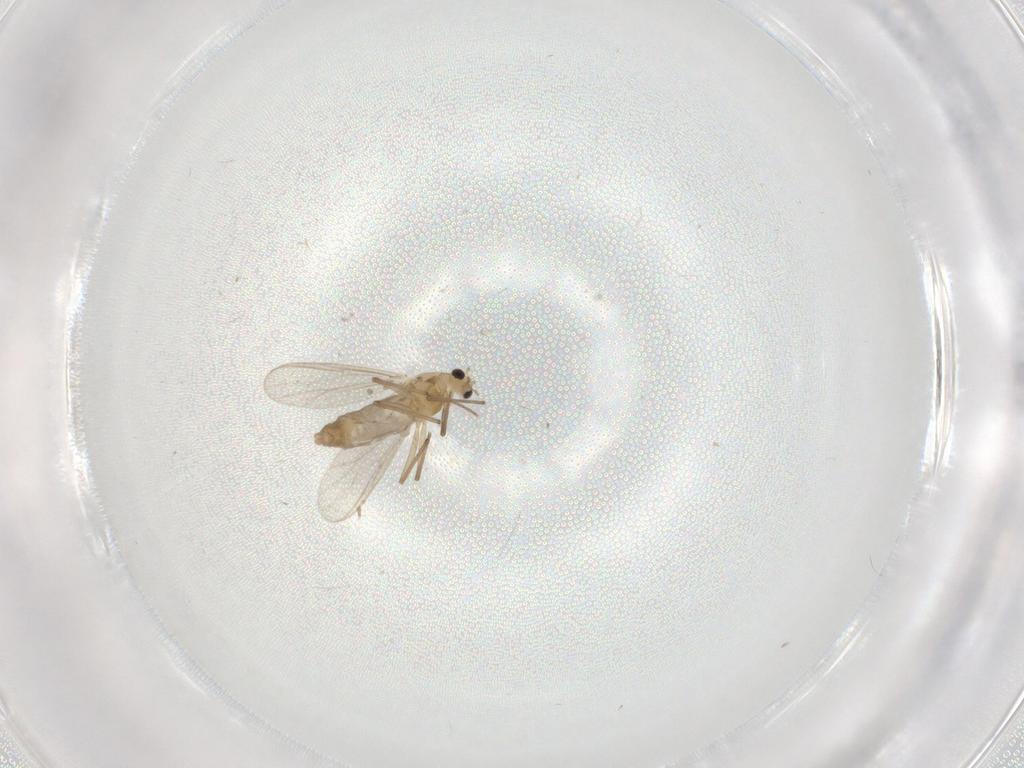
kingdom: Animalia
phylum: Arthropoda
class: Insecta
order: Diptera
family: Chironomidae
